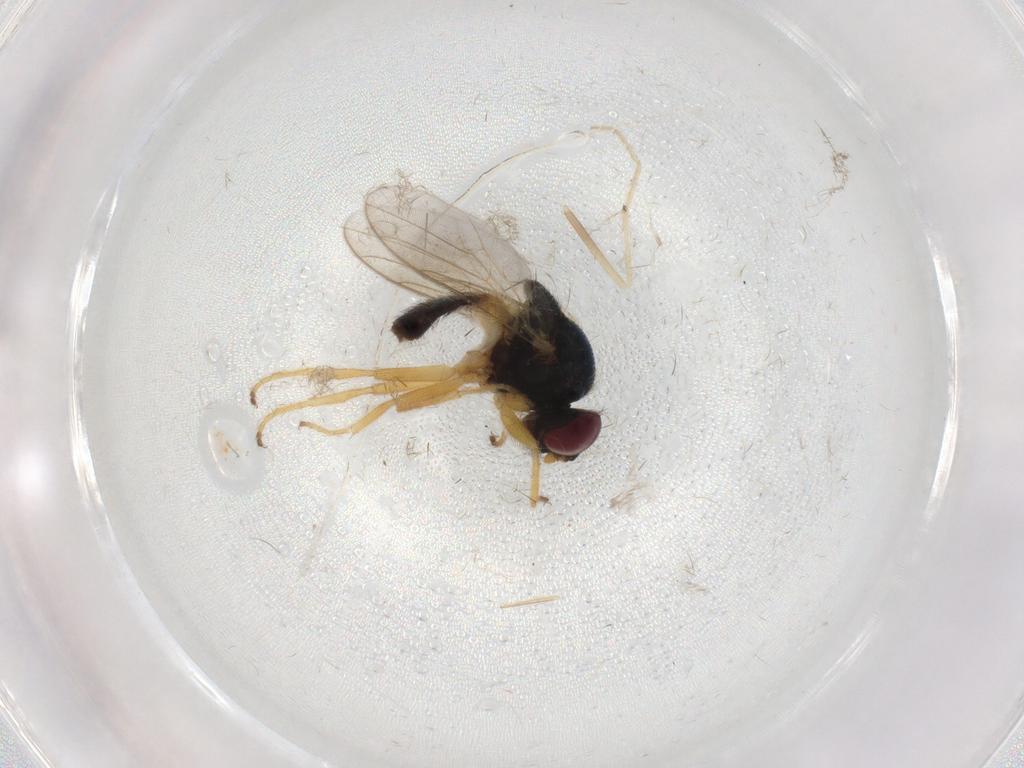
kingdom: Animalia
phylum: Arthropoda
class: Insecta
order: Diptera
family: Chloropidae
